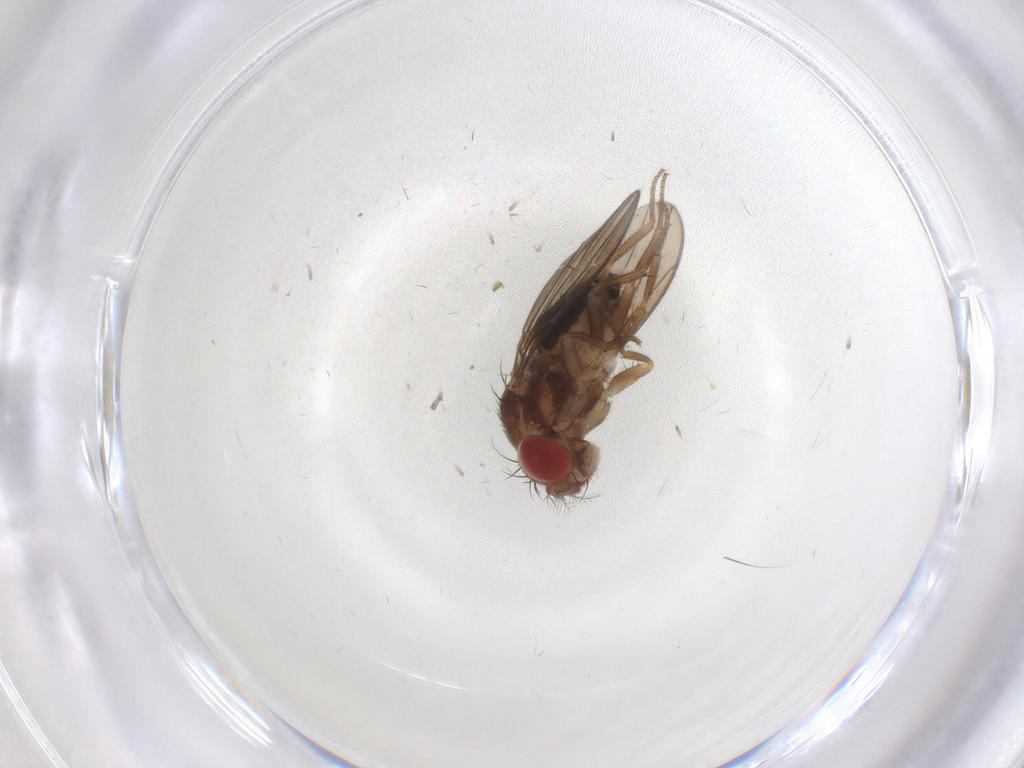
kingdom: Animalia
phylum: Arthropoda
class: Insecta
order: Diptera
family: Drosophilidae
